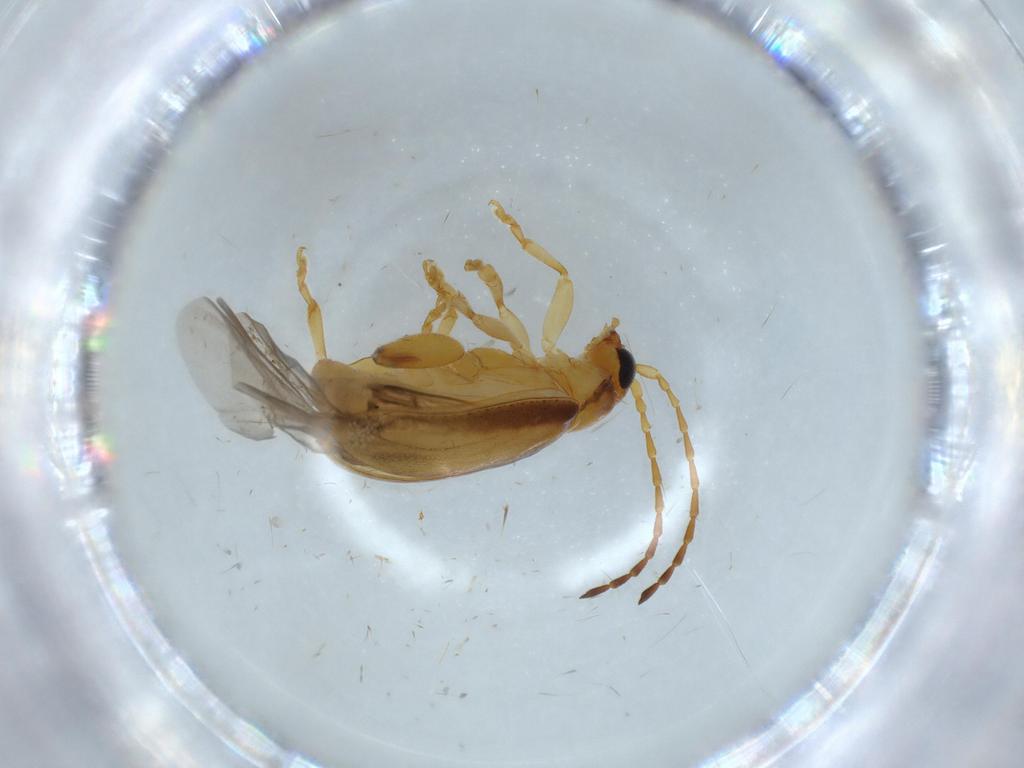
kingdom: Animalia
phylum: Arthropoda
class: Insecta
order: Coleoptera
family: Chrysomelidae
